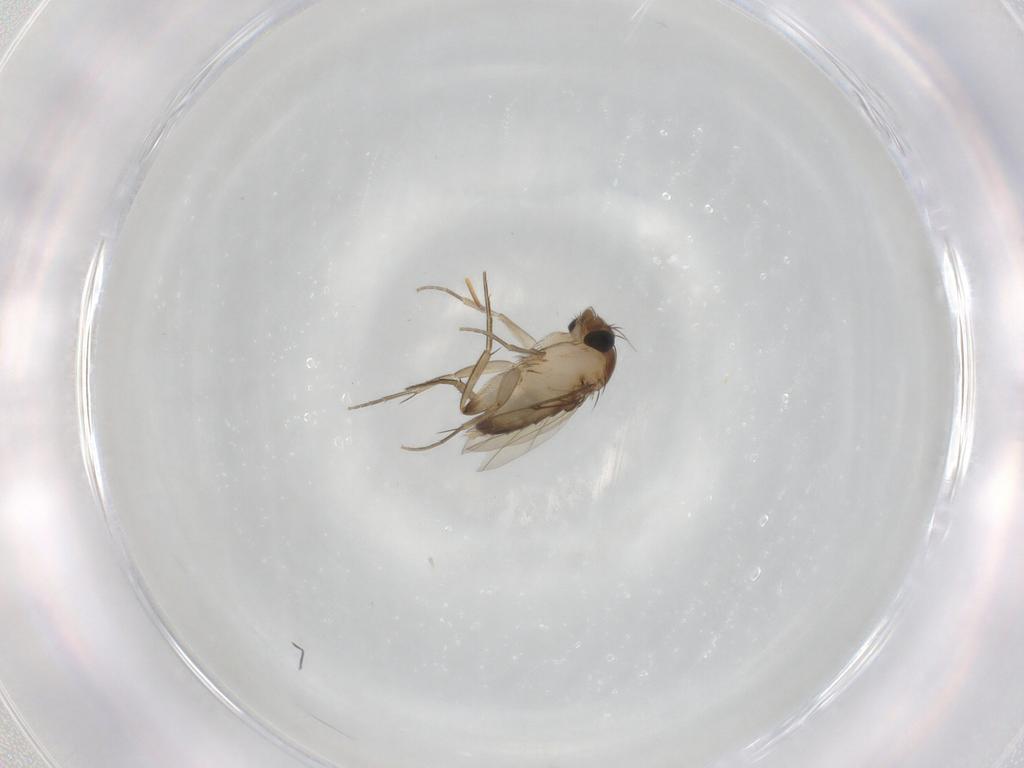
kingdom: Animalia
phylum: Arthropoda
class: Insecta
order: Diptera
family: Phoridae
